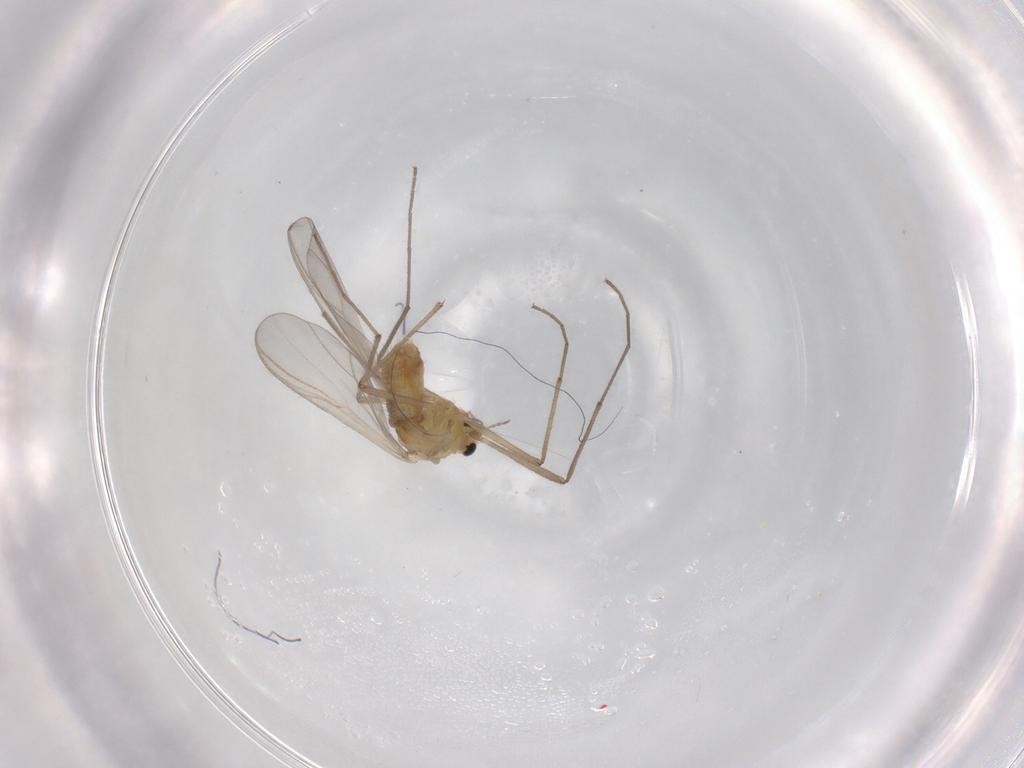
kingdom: Animalia
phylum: Arthropoda
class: Insecta
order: Diptera
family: Chironomidae
